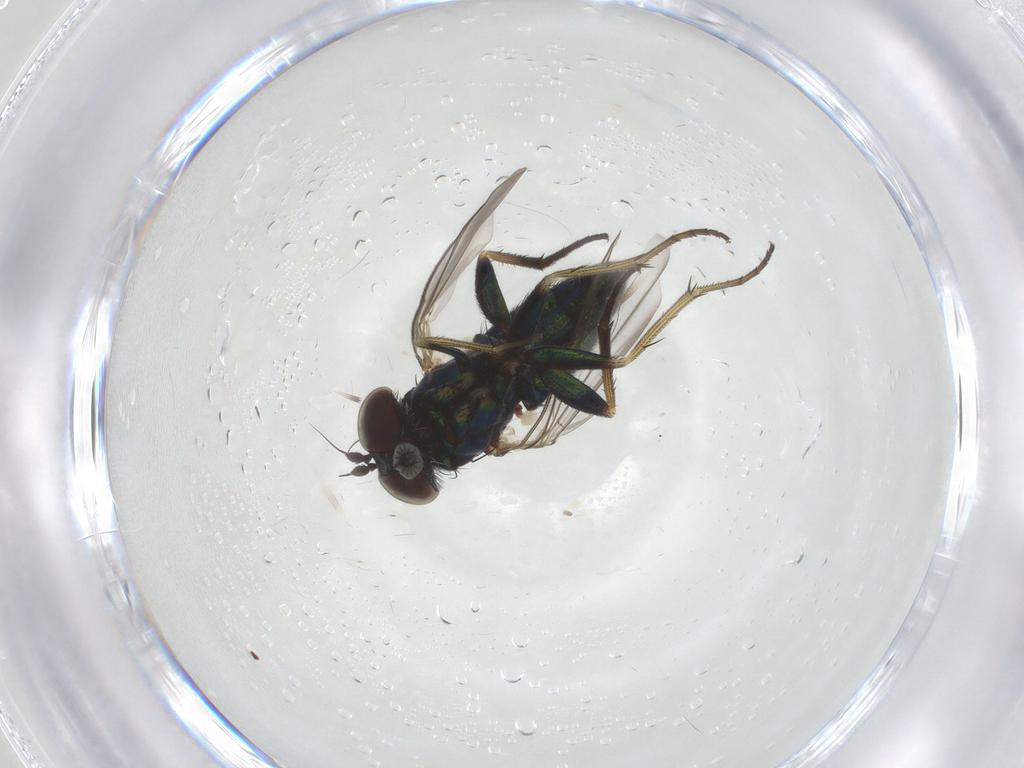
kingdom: Animalia
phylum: Arthropoda
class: Insecta
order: Diptera
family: Dolichopodidae
